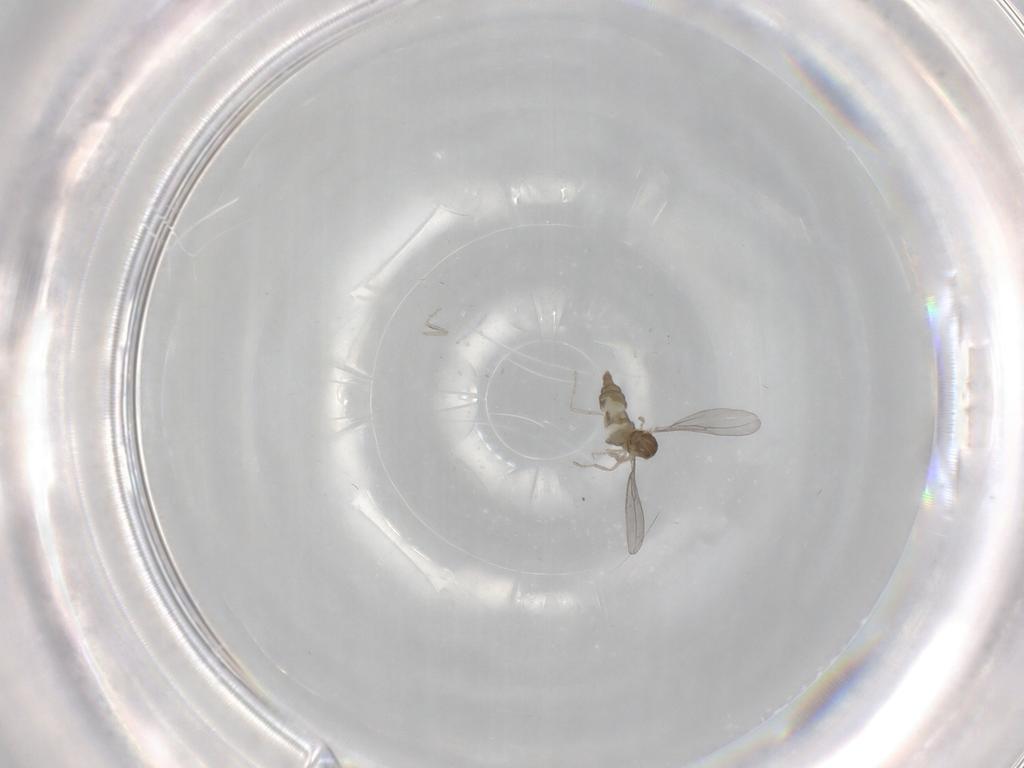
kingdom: Animalia
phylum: Arthropoda
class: Insecta
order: Diptera
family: Cecidomyiidae
